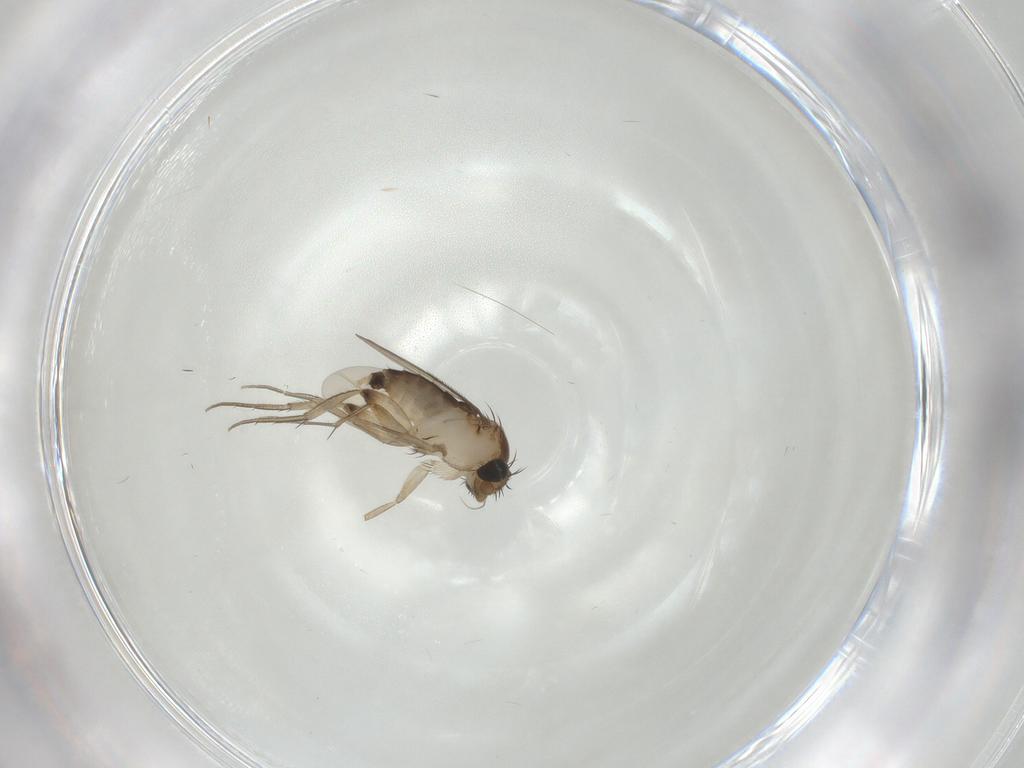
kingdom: Animalia
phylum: Arthropoda
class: Insecta
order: Diptera
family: Phoridae
